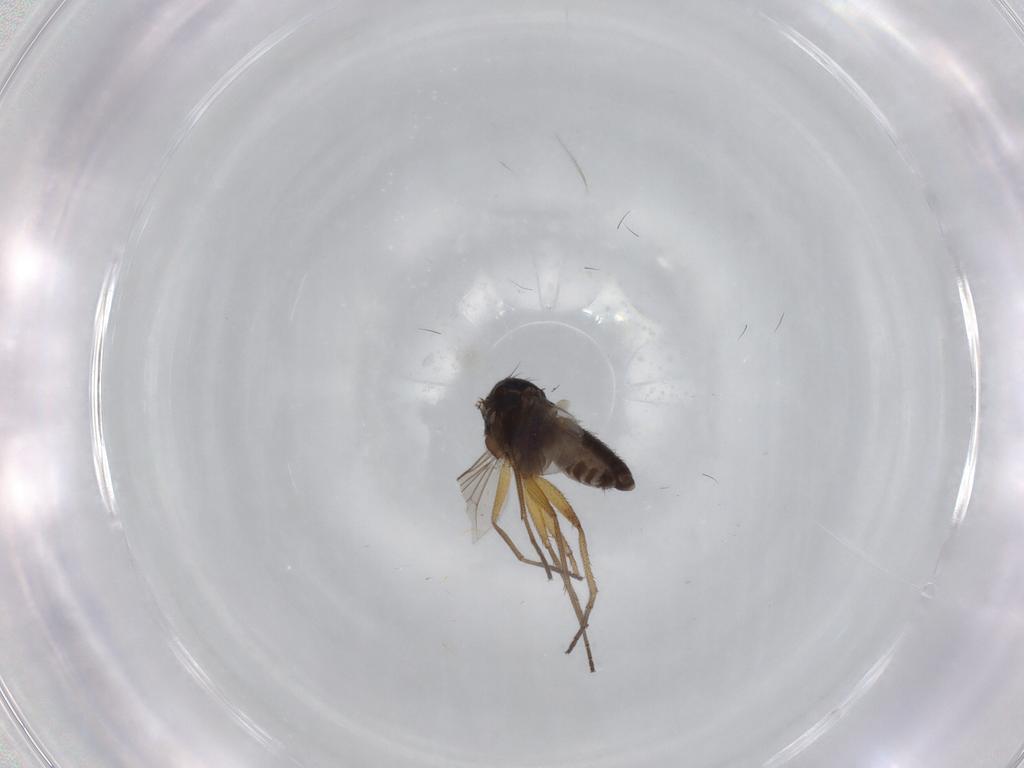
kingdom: Animalia
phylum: Arthropoda
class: Insecta
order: Diptera
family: Dolichopodidae
